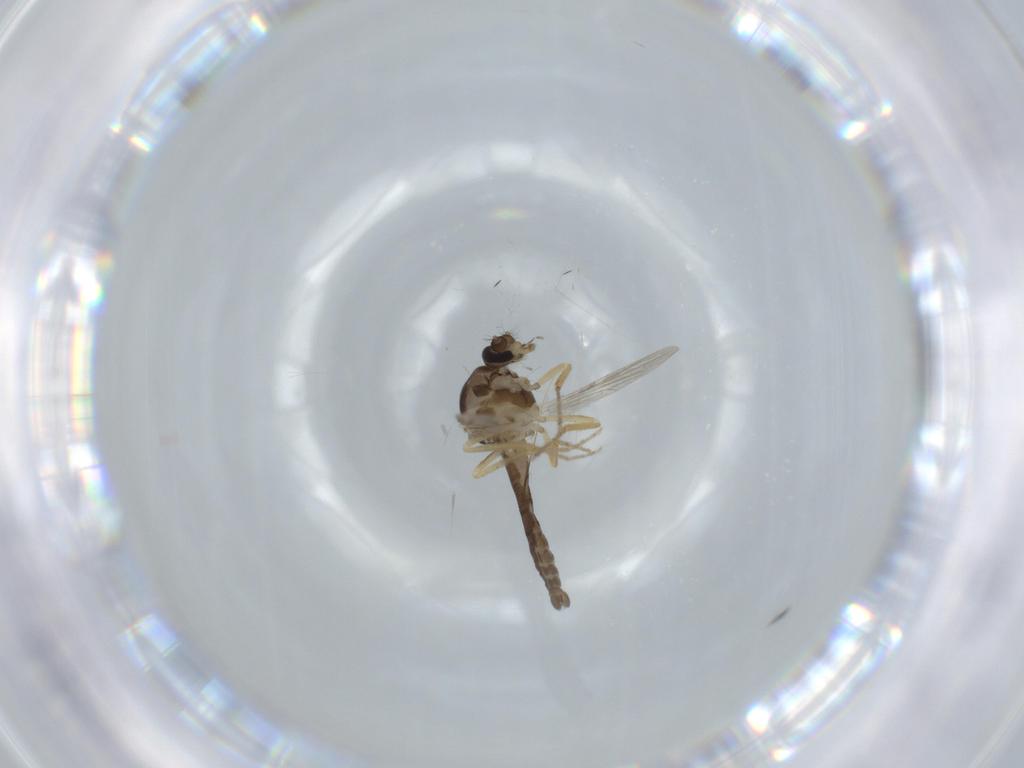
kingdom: Animalia
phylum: Arthropoda
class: Insecta
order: Diptera
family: Ceratopogonidae
